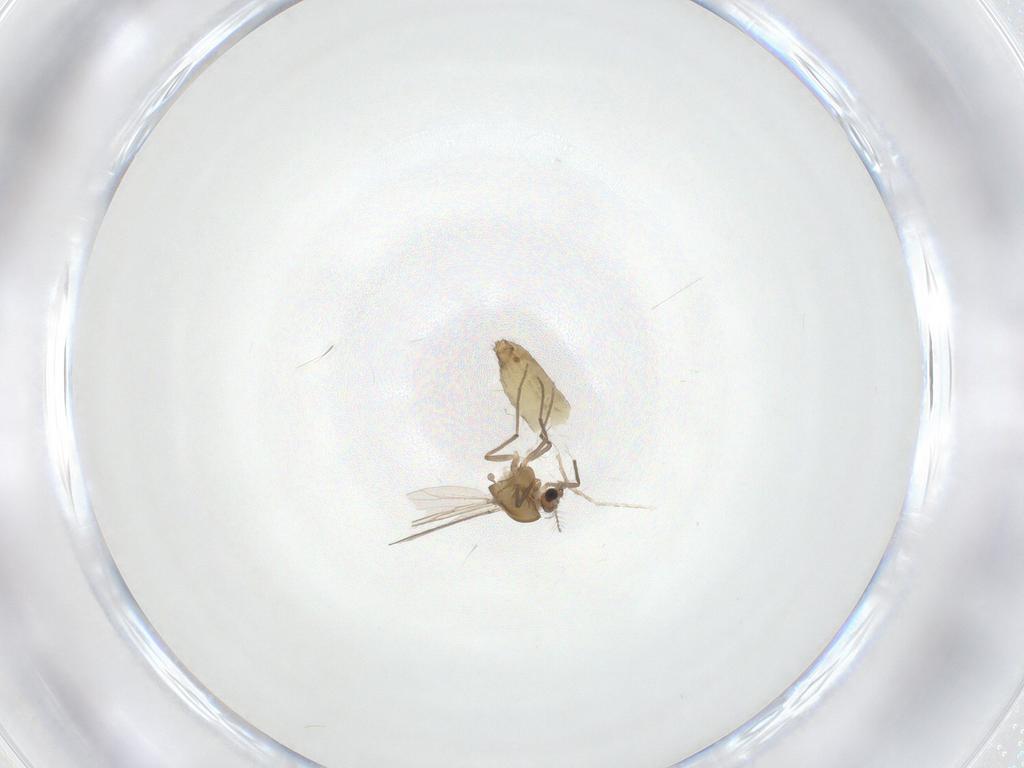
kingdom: Animalia
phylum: Arthropoda
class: Insecta
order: Diptera
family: Chironomidae
